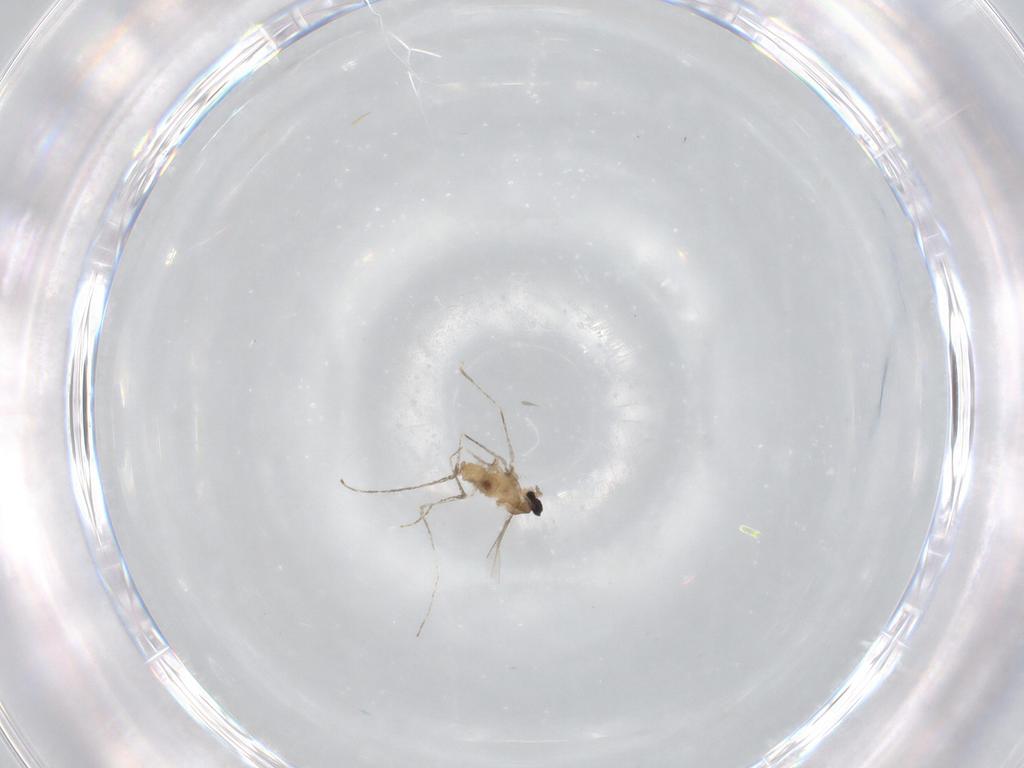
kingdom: Animalia
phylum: Arthropoda
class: Insecta
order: Diptera
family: Cecidomyiidae
